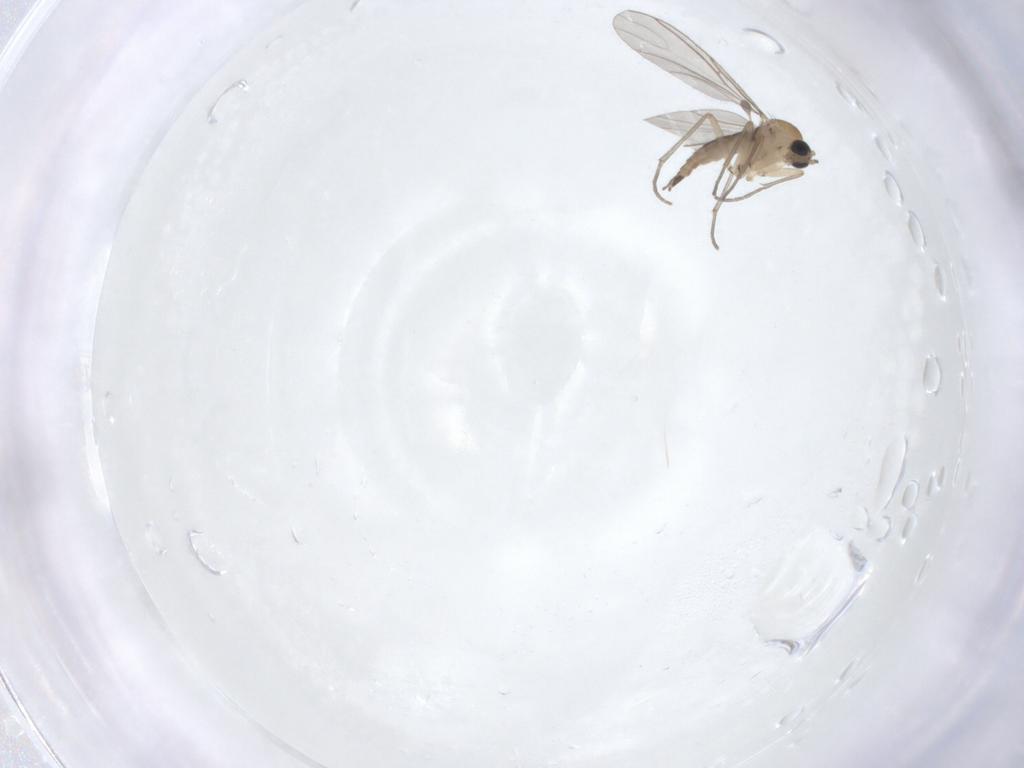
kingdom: Animalia
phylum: Arthropoda
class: Insecta
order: Diptera
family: Sciaridae
